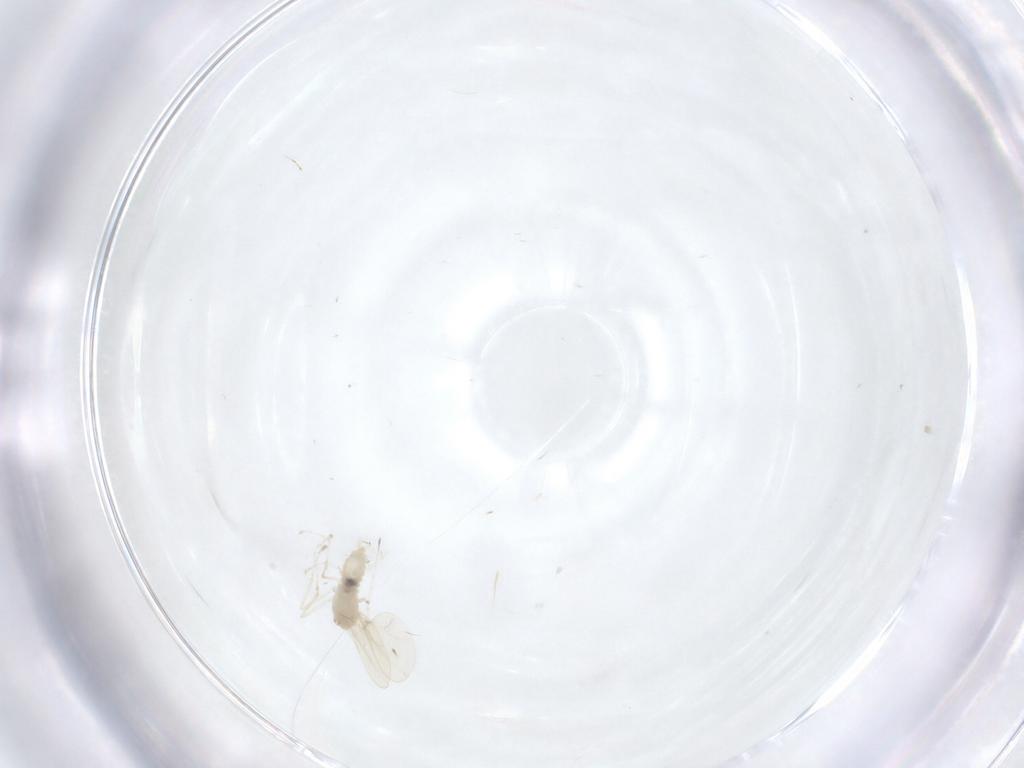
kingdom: Animalia
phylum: Arthropoda
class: Insecta
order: Diptera
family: Cecidomyiidae
